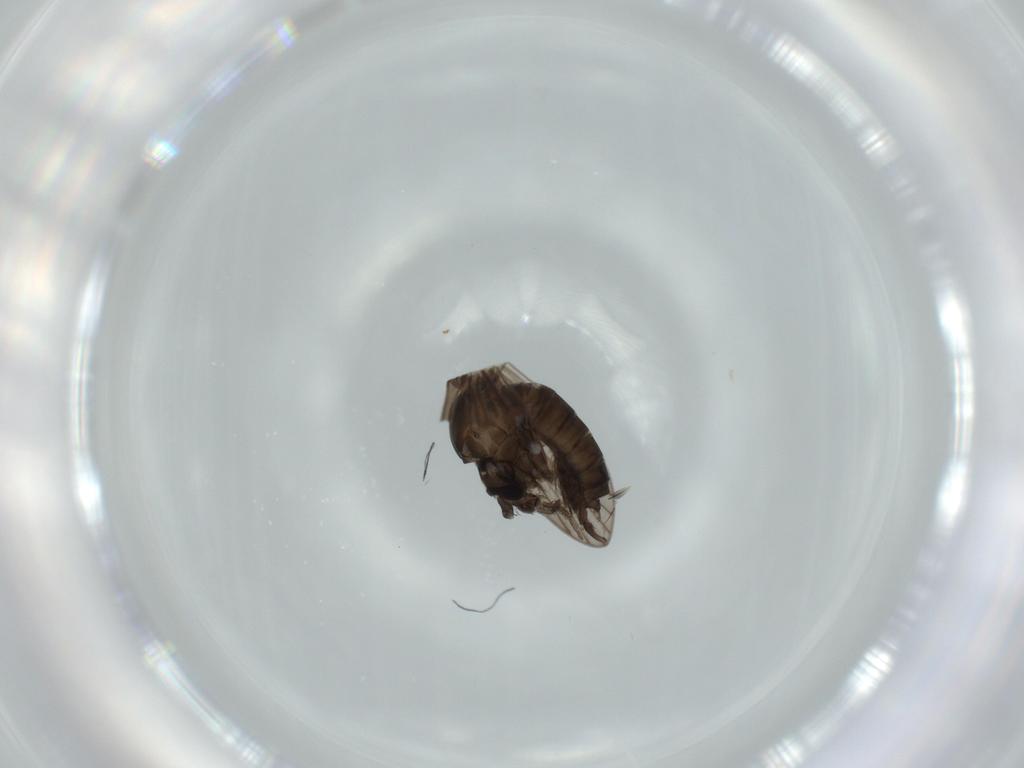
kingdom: Animalia
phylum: Arthropoda
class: Insecta
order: Diptera
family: Psychodidae
